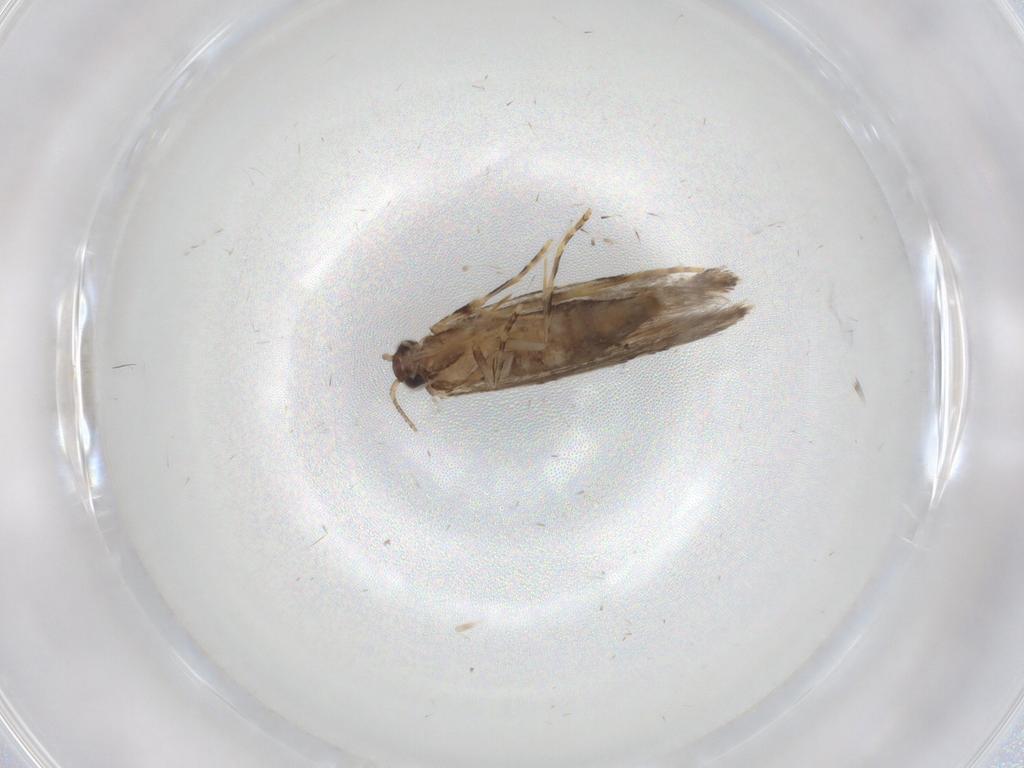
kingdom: Animalia
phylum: Arthropoda
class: Insecta
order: Lepidoptera
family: Tineidae
